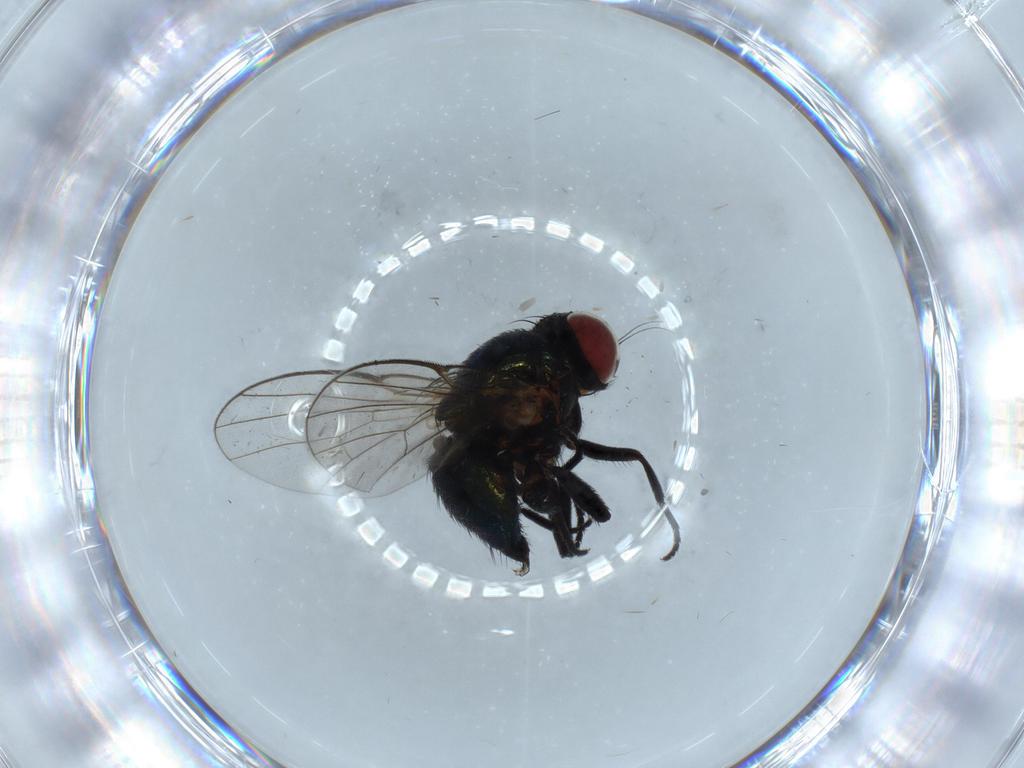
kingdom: Animalia
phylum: Arthropoda
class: Insecta
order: Diptera
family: Agromyzidae
